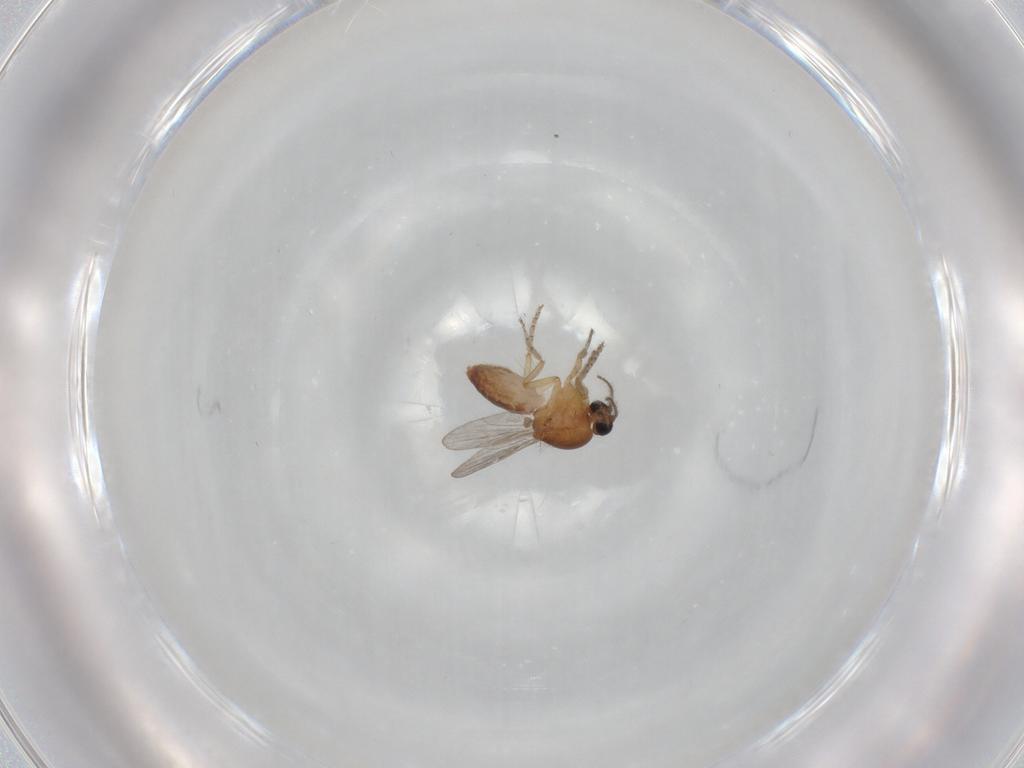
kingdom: Animalia
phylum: Arthropoda
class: Insecta
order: Diptera
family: Ceratopogonidae
